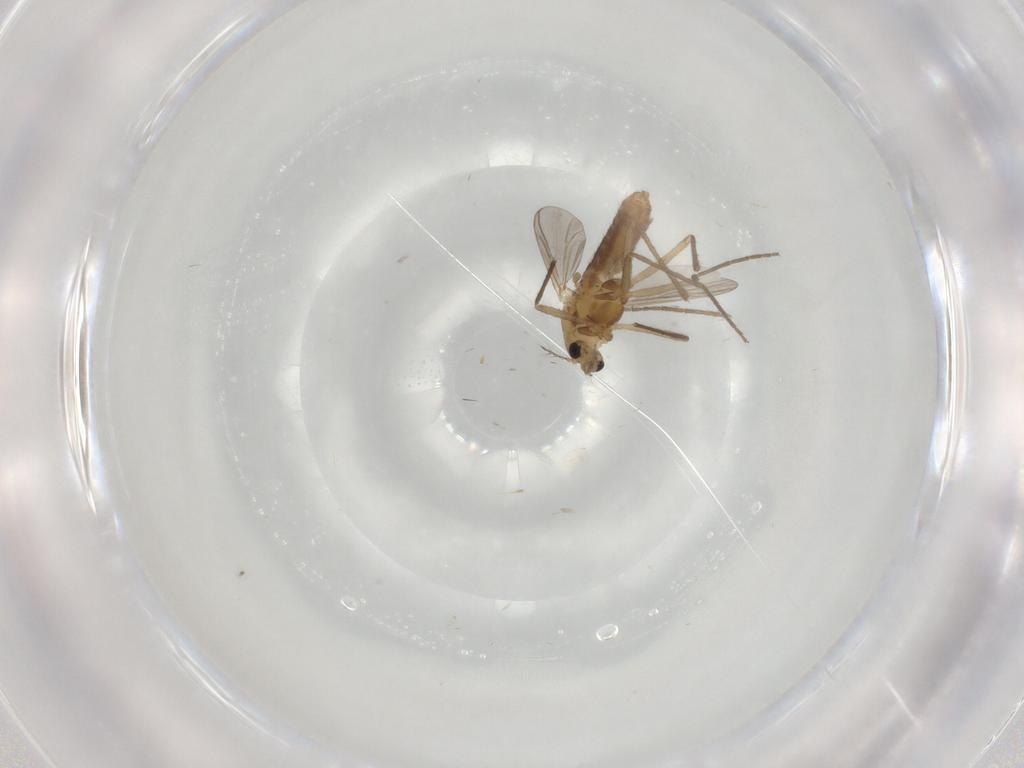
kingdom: Animalia
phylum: Arthropoda
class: Insecta
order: Diptera
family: Chironomidae
